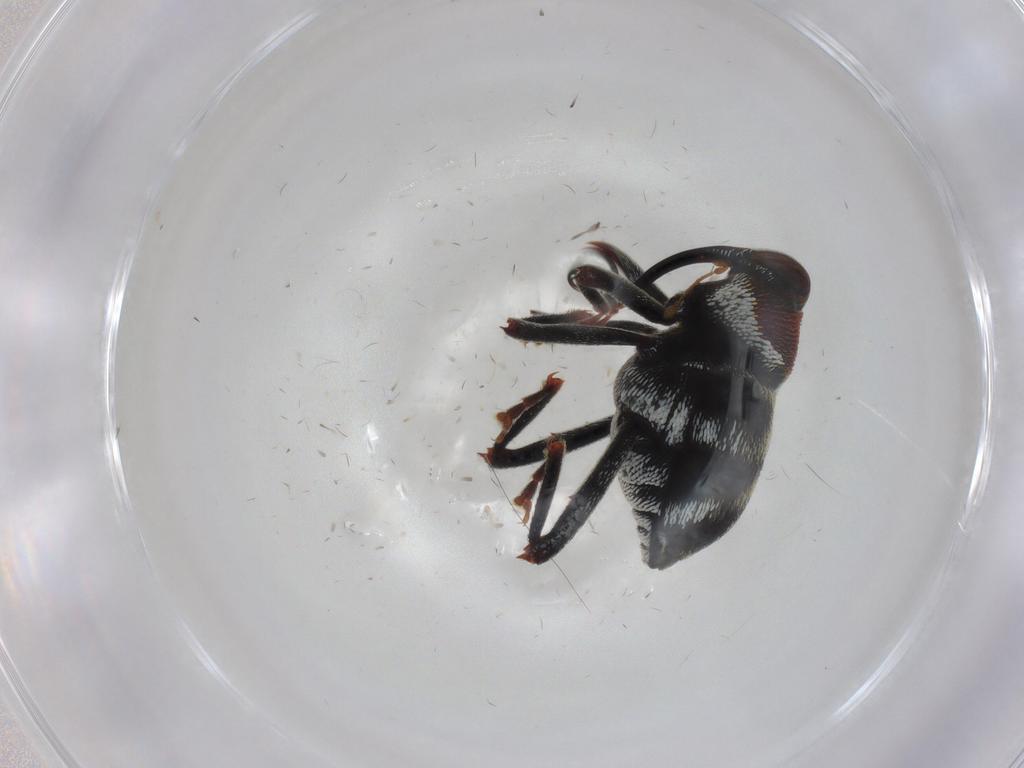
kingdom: Animalia
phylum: Arthropoda
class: Insecta
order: Coleoptera
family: Curculionidae
